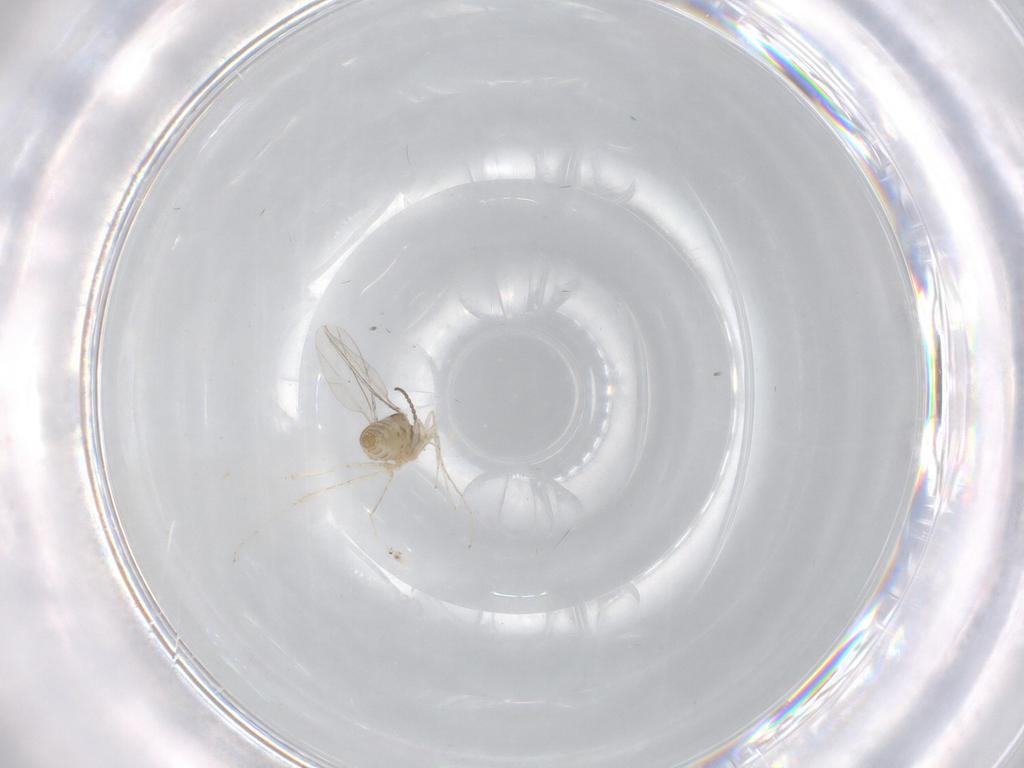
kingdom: Animalia
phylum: Arthropoda
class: Insecta
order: Diptera
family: Cecidomyiidae
